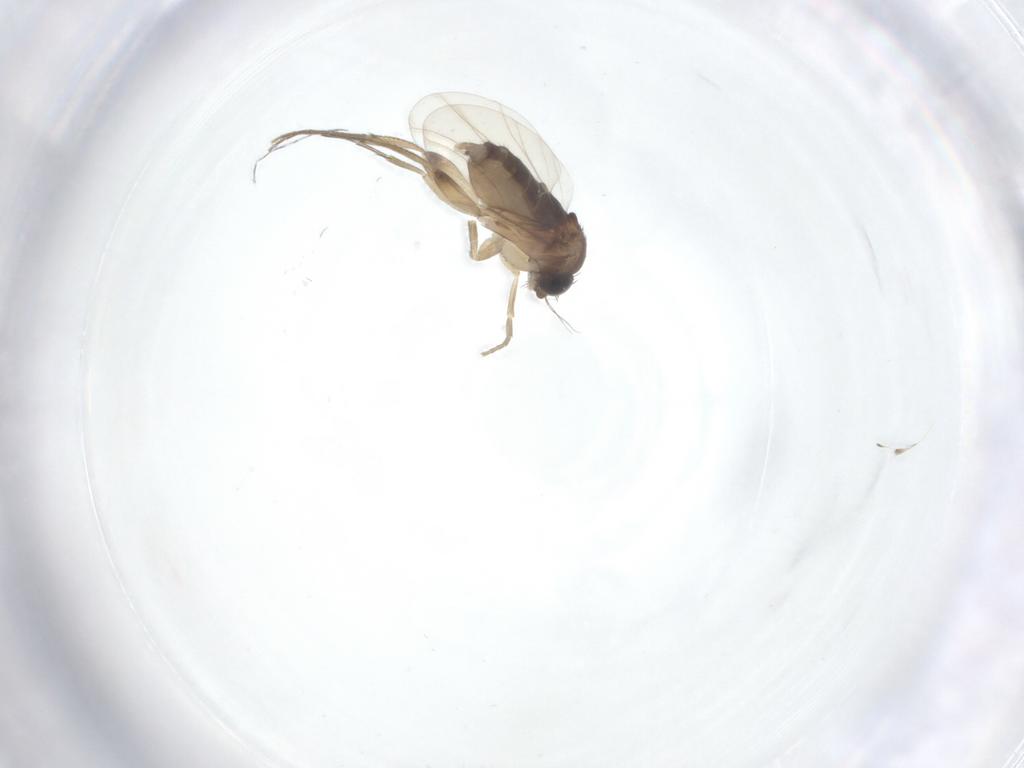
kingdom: Animalia
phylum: Arthropoda
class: Insecta
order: Diptera
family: Phoridae
